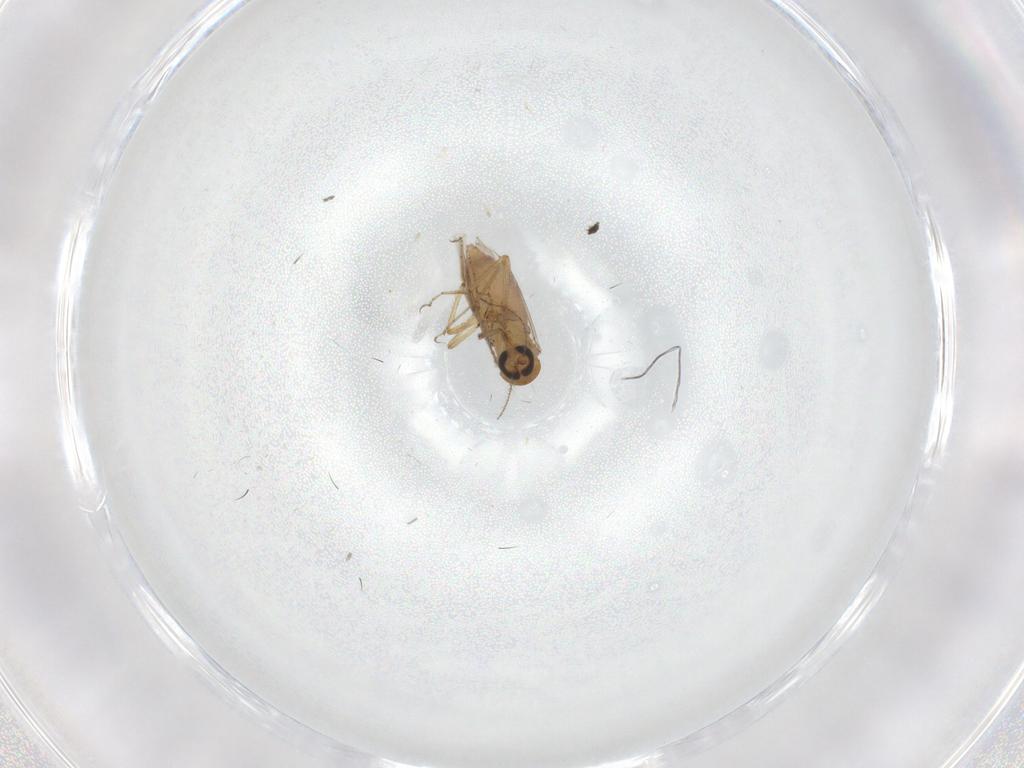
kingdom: Animalia
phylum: Arthropoda
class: Insecta
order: Diptera
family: Ceratopogonidae
